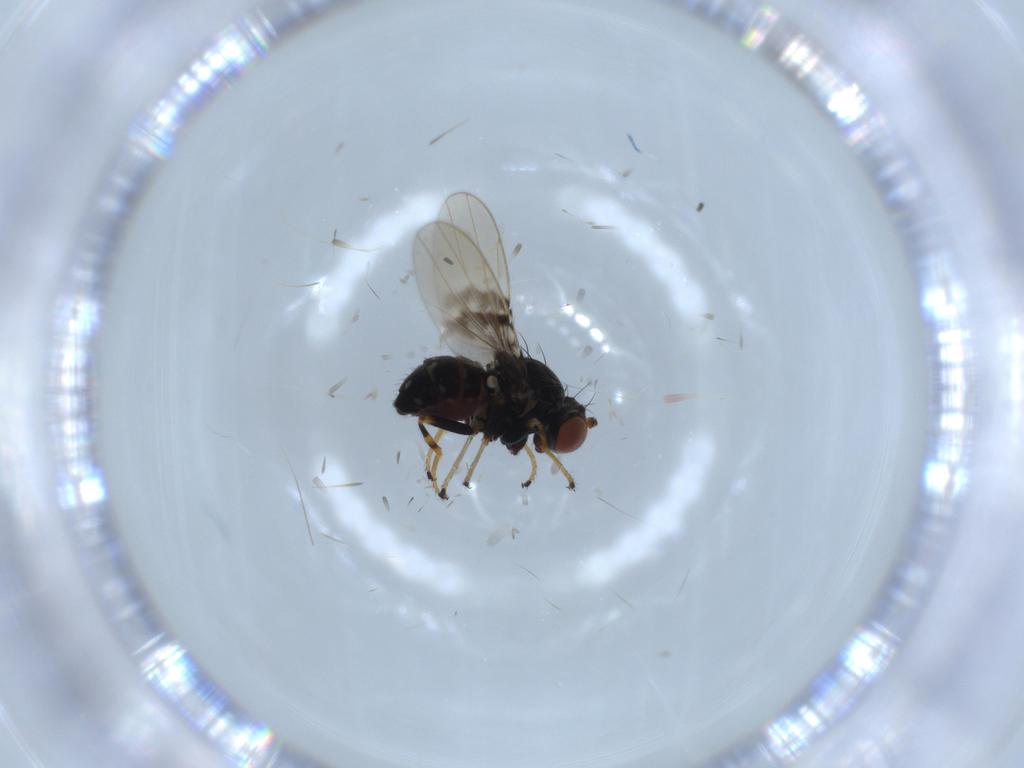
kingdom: Animalia
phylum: Arthropoda
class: Insecta
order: Diptera
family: Ephydridae
